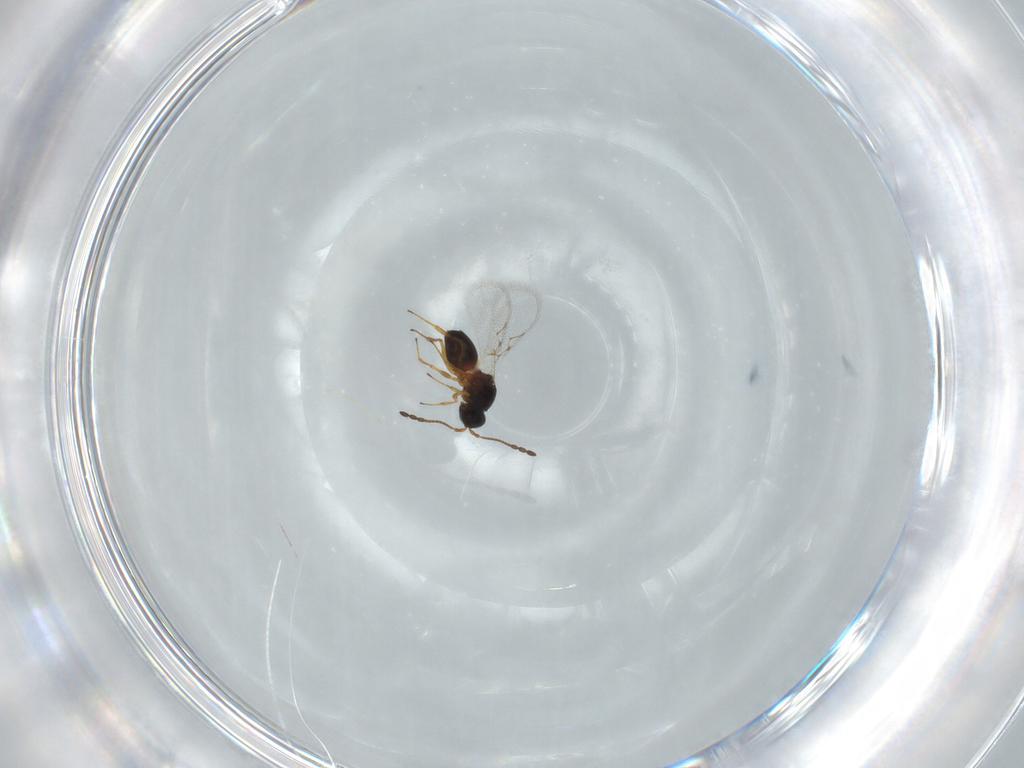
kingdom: Animalia
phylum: Arthropoda
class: Insecta
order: Hymenoptera
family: Figitidae
